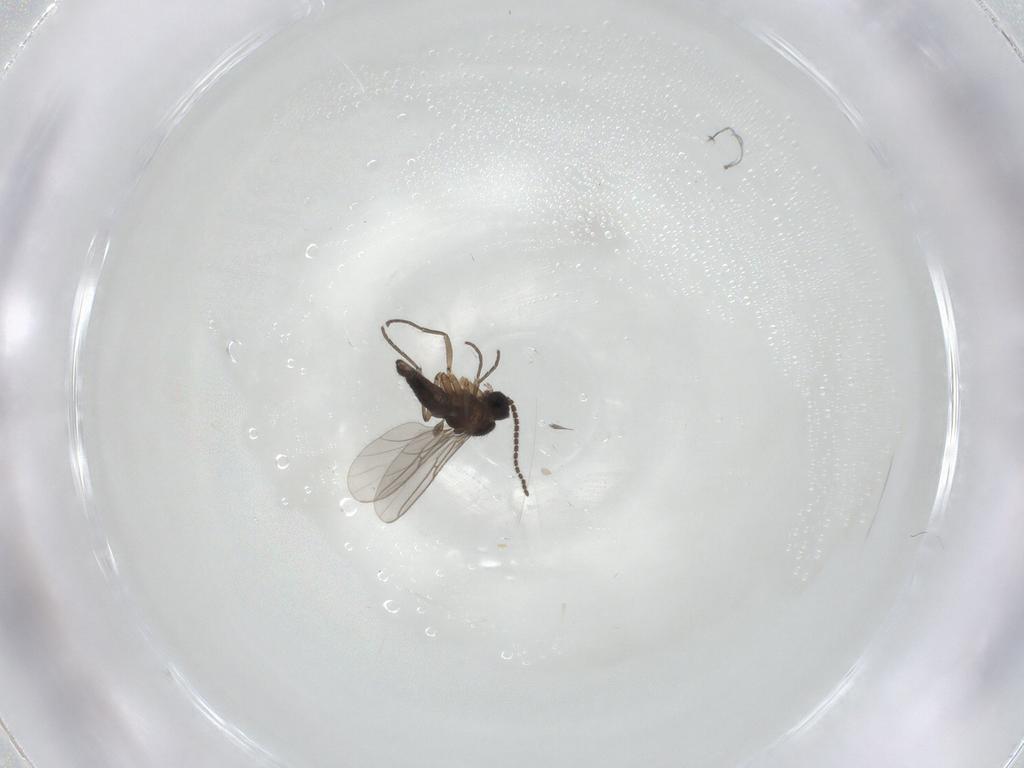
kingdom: Animalia
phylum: Arthropoda
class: Insecta
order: Diptera
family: Sciaridae
